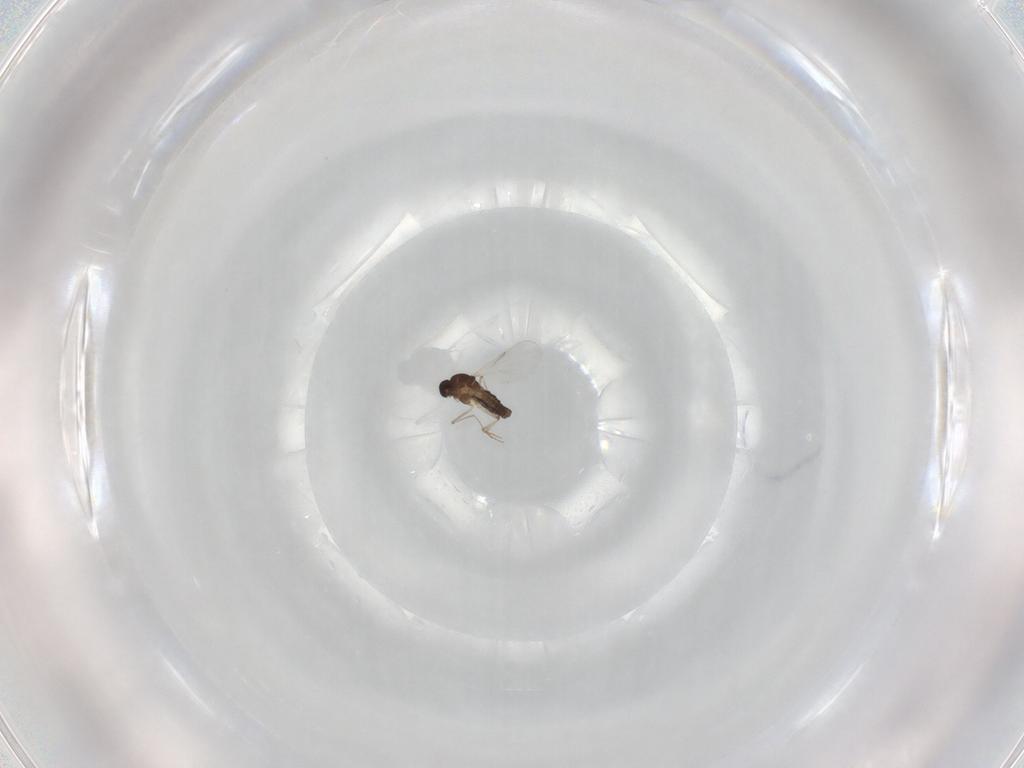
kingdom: Animalia
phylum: Arthropoda
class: Insecta
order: Diptera
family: Ceratopogonidae
